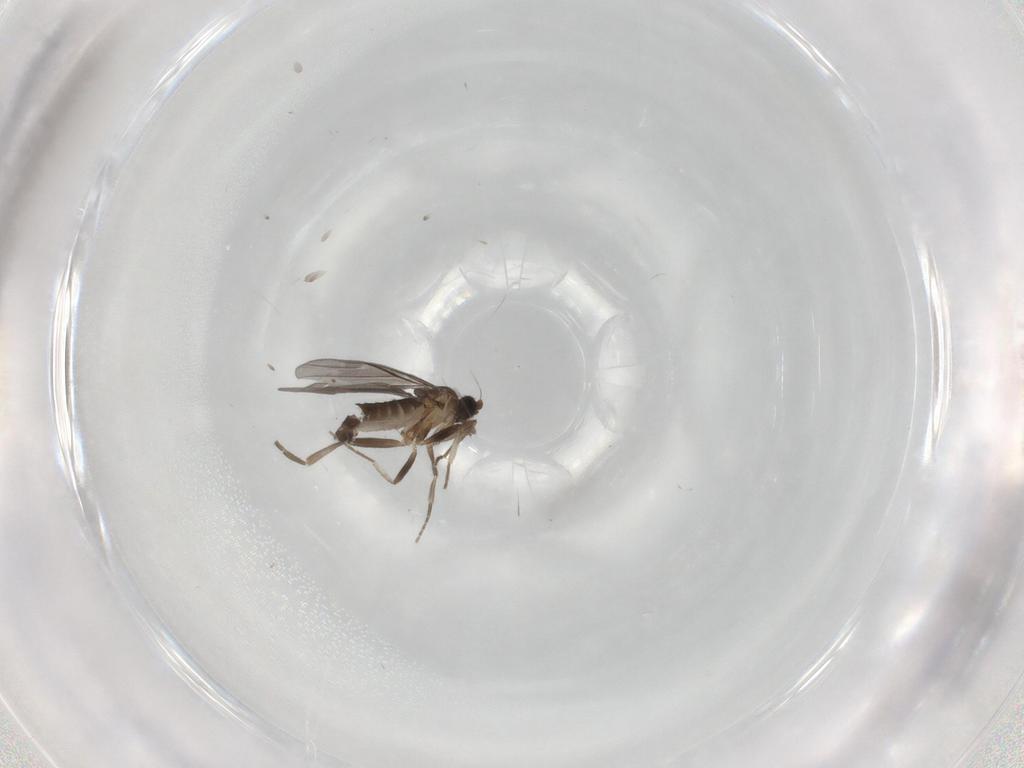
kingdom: Animalia
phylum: Arthropoda
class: Insecta
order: Diptera
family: Phoridae
